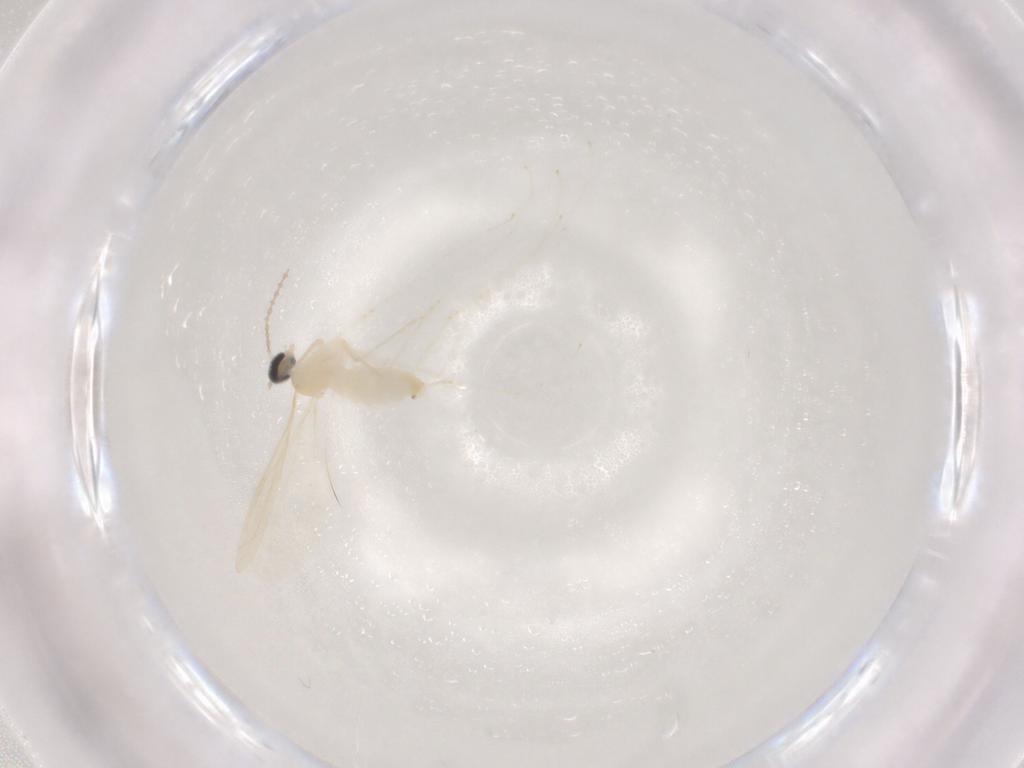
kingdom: Animalia
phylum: Arthropoda
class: Insecta
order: Diptera
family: Cecidomyiidae
